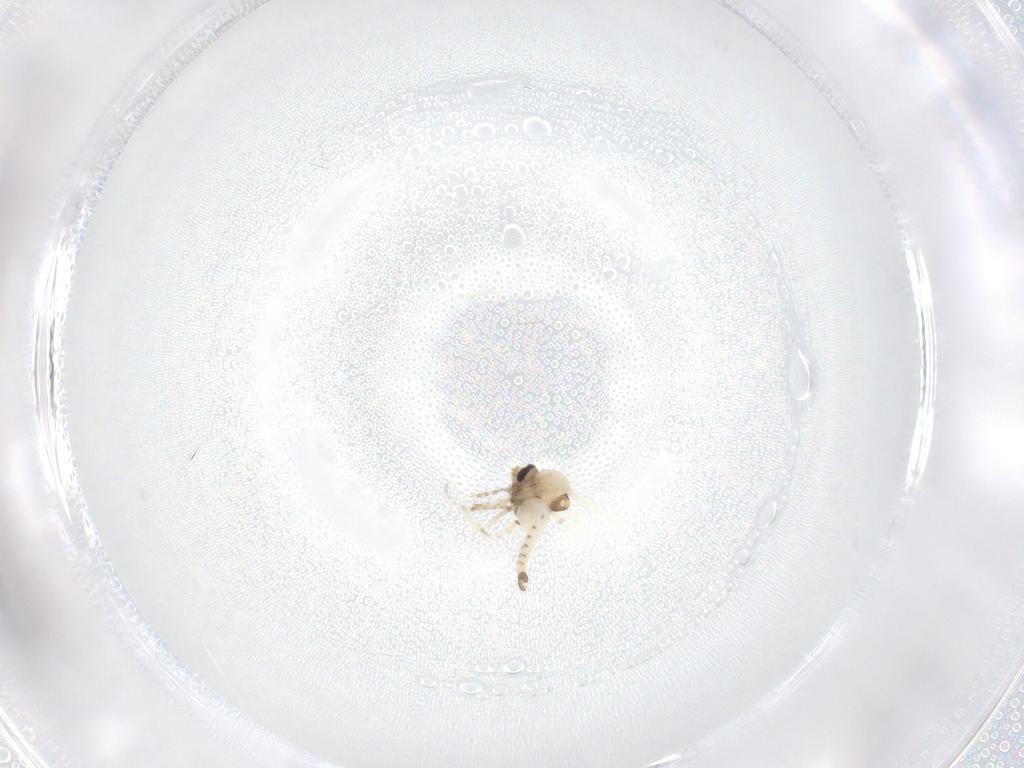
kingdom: Animalia
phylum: Arthropoda
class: Insecta
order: Diptera
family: Ceratopogonidae
